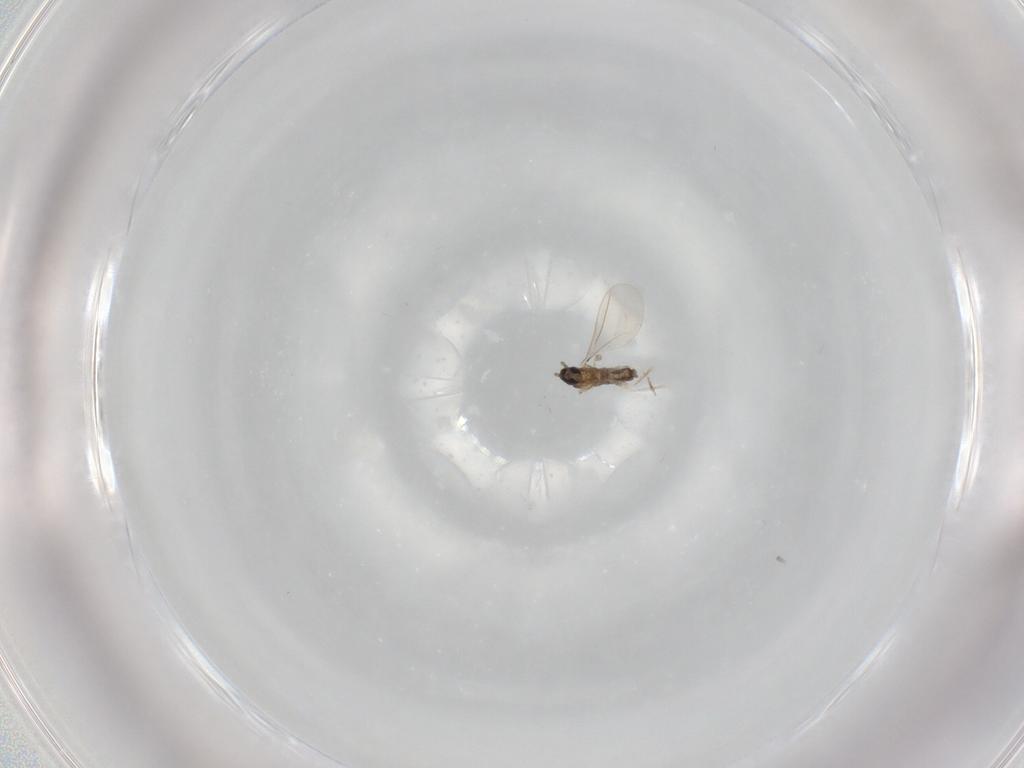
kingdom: Animalia
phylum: Arthropoda
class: Insecta
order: Diptera
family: Cecidomyiidae
